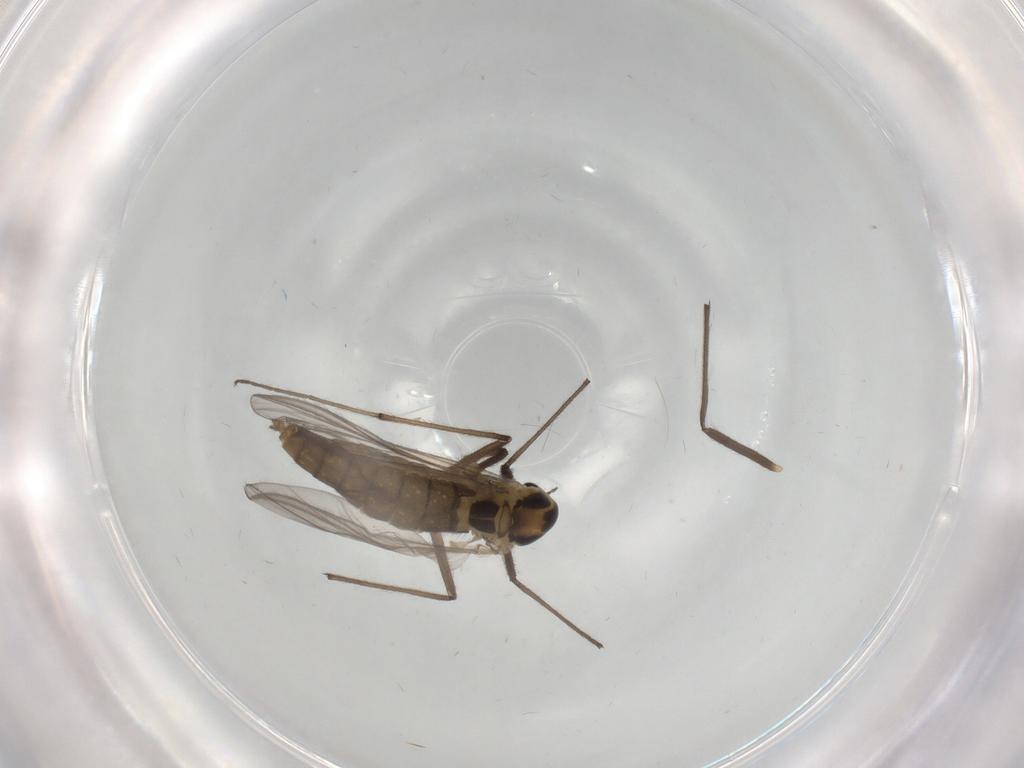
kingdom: Animalia
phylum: Arthropoda
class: Insecta
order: Diptera
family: Chironomidae
